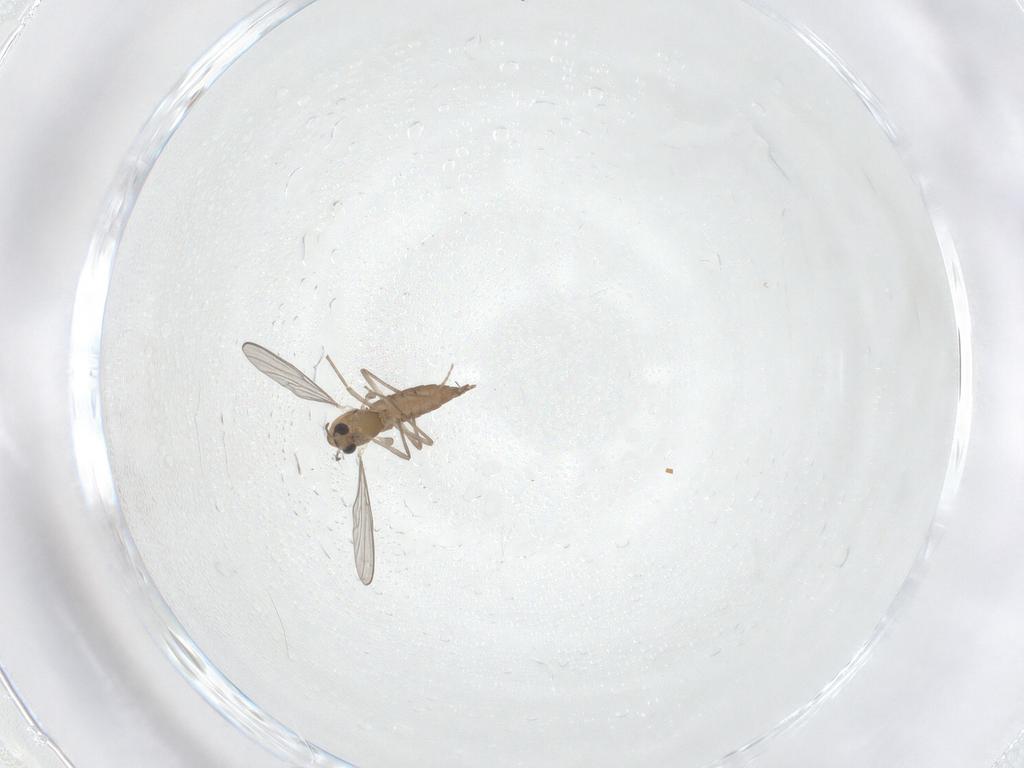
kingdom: Animalia
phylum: Arthropoda
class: Insecta
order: Diptera
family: Chironomidae
